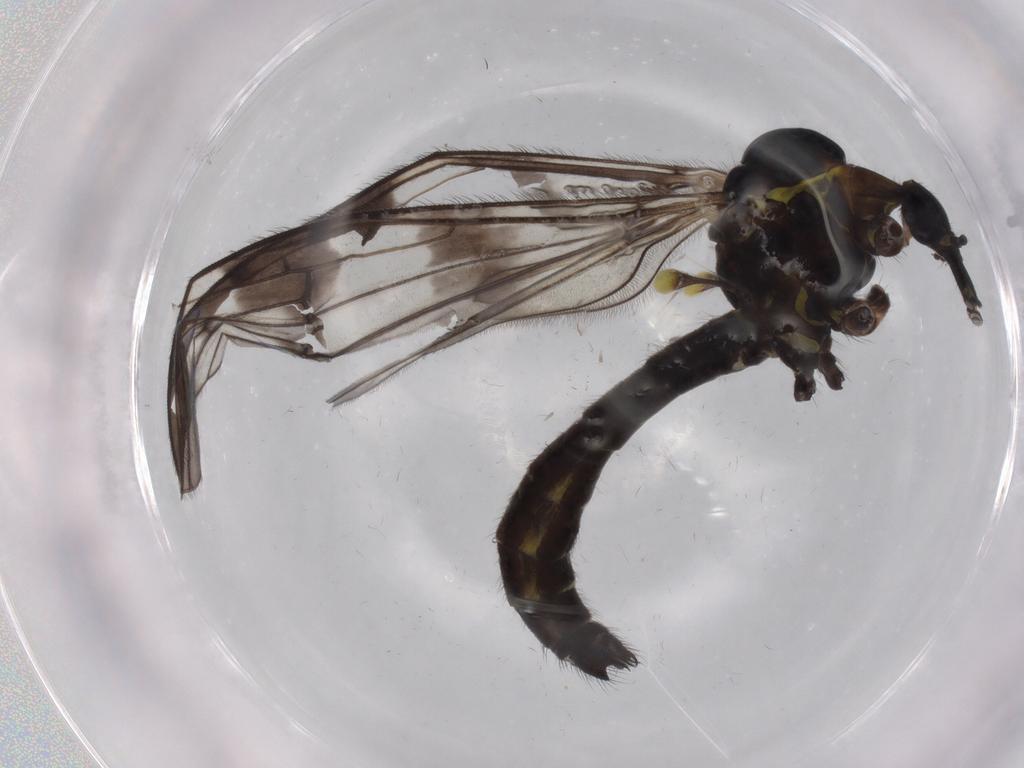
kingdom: Animalia
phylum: Arthropoda
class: Insecta
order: Diptera
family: Limoniidae
